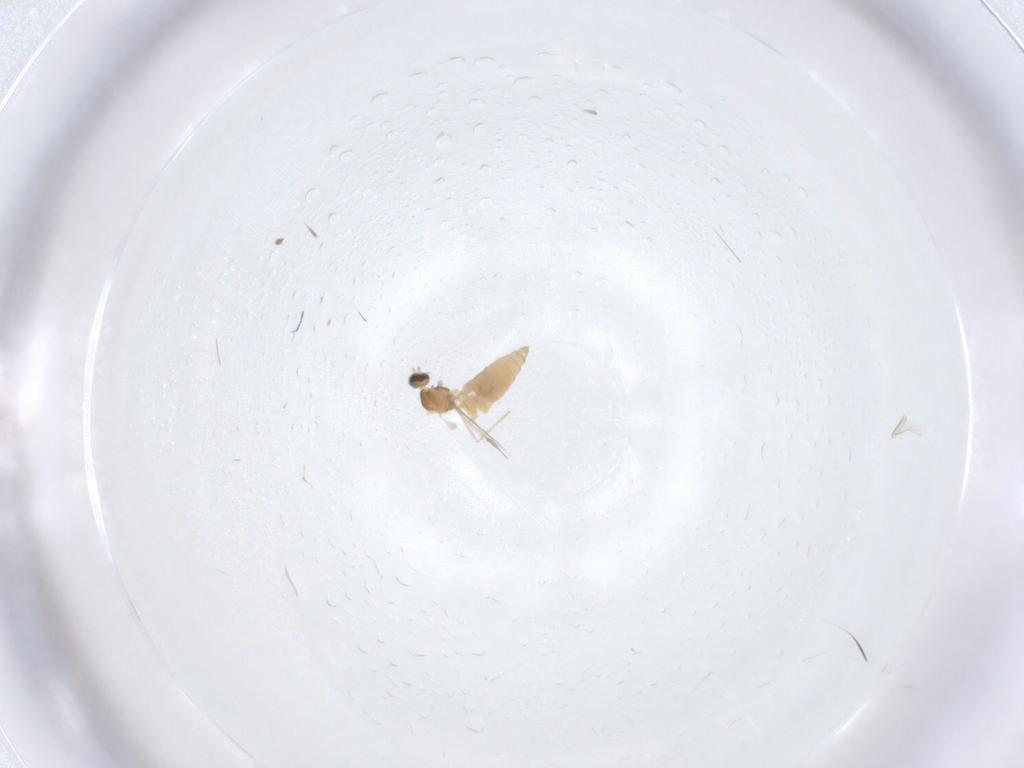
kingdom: Animalia
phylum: Arthropoda
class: Insecta
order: Diptera
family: Cecidomyiidae
